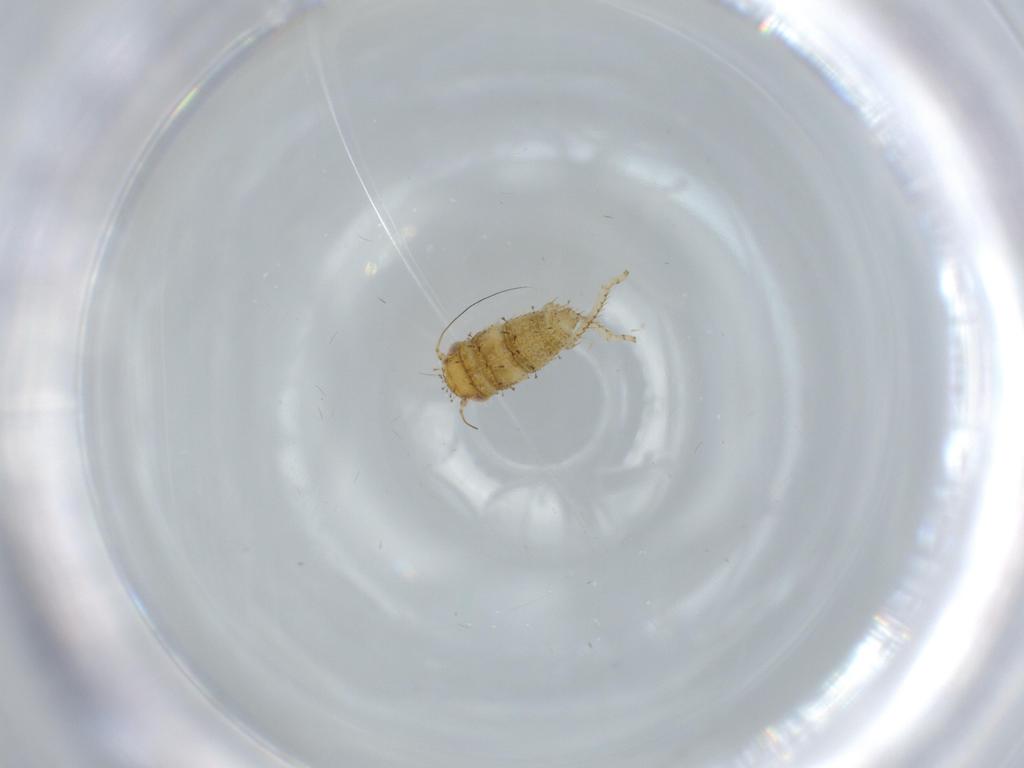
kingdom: Animalia
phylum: Arthropoda
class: Insecta
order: Hemiptera
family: Cicadellidae
